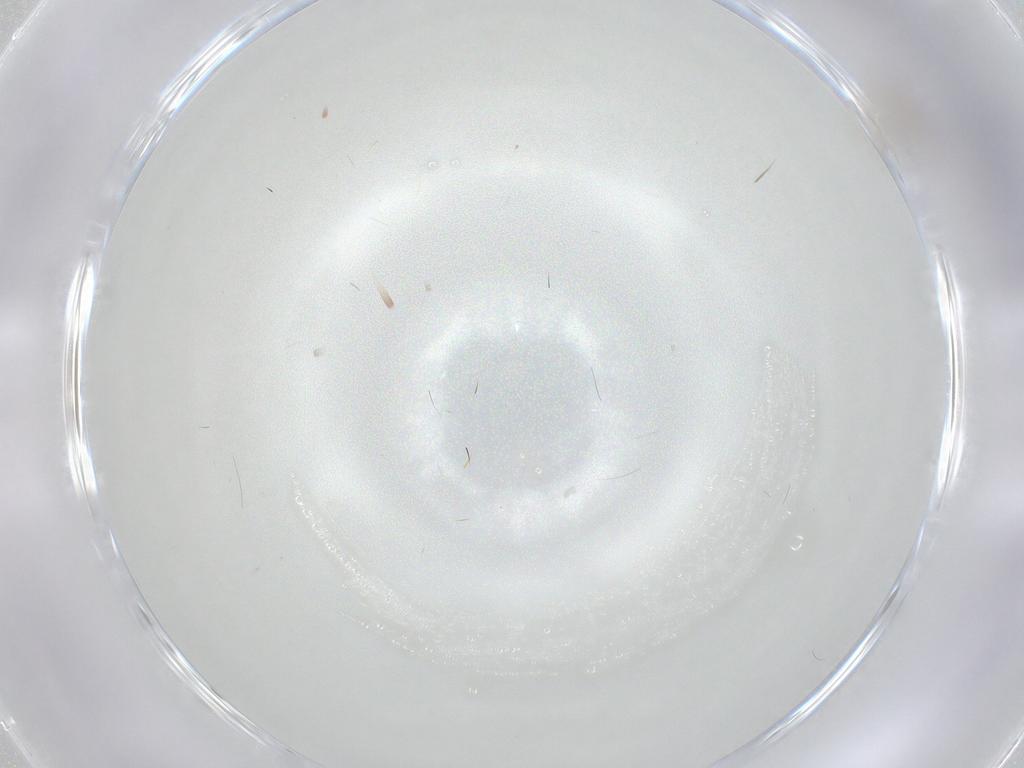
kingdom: Animalia
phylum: Arthropoda
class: Insecta
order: Hymenoptera
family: Mymaridae
